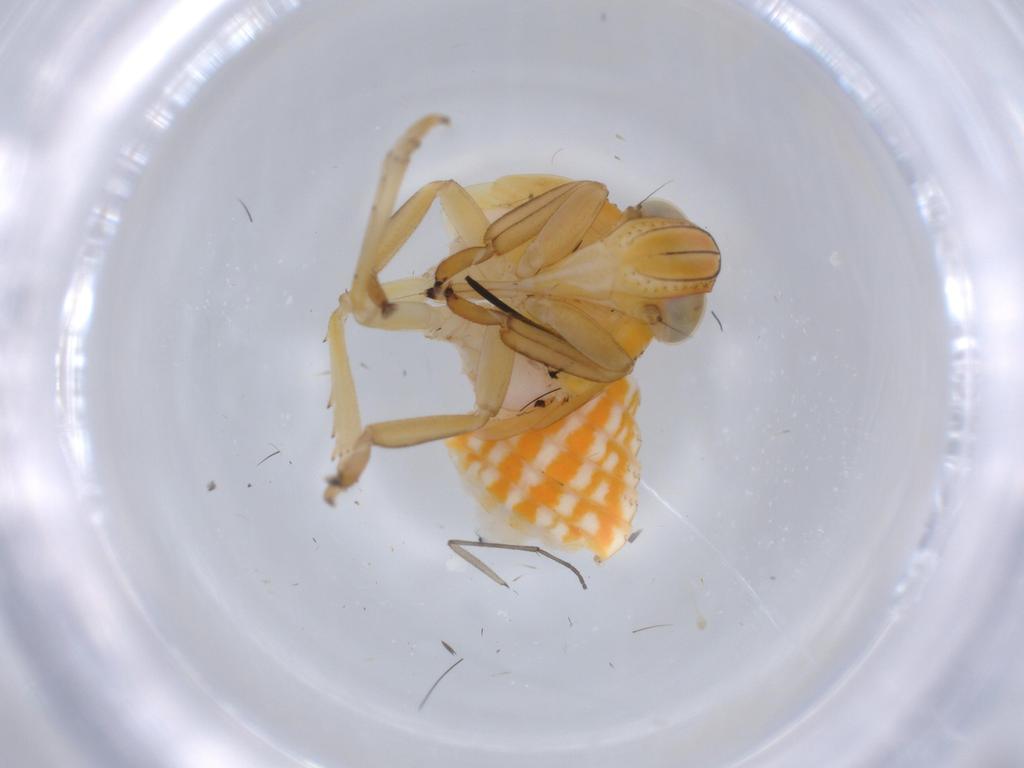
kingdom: Animalia
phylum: Arthropoda
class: Insecta
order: Hemiptera
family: Issidae
